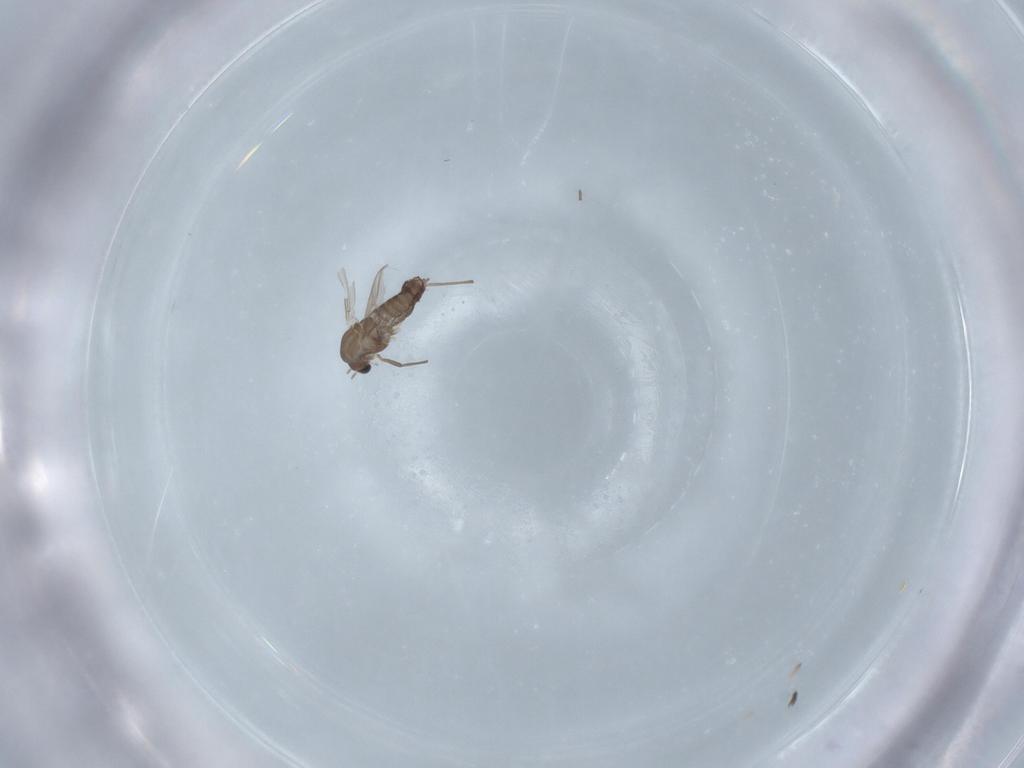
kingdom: Animalia
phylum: Arthropoda
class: Insecta
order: Diptera
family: Chironomidae
